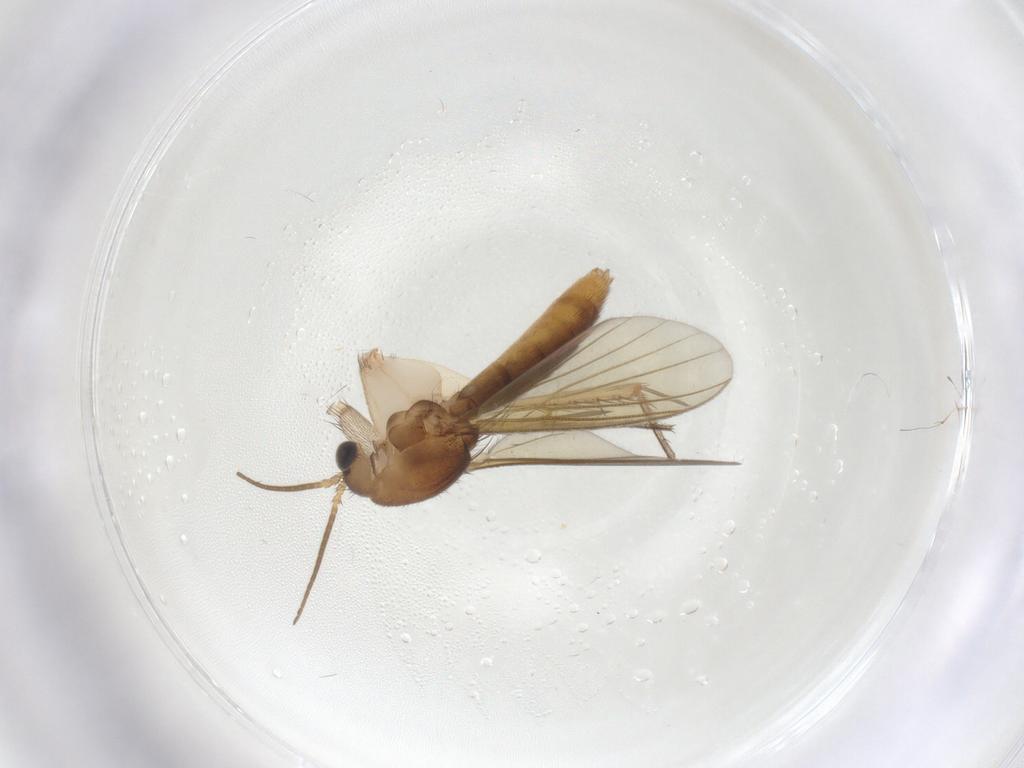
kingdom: Animalia
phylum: Arthropoda
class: Insecta
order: Diptera
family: Mycetophilidae
